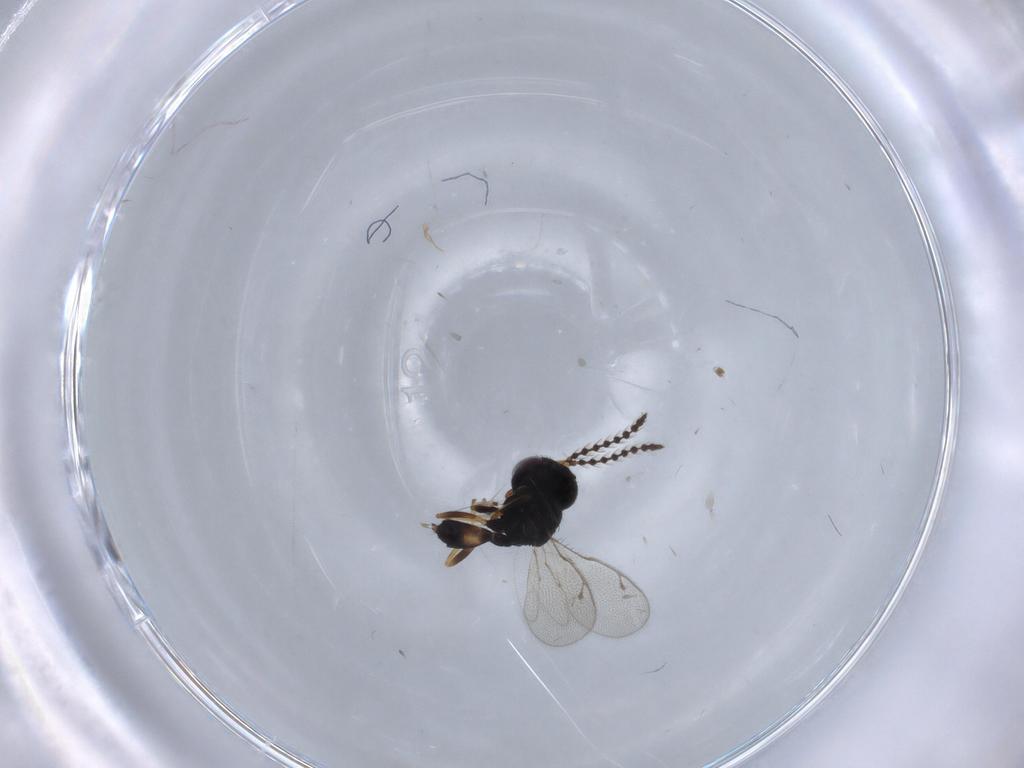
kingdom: Animalia
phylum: Arthropoda
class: Insecta
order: Hymenoptera
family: Pteromalidae
